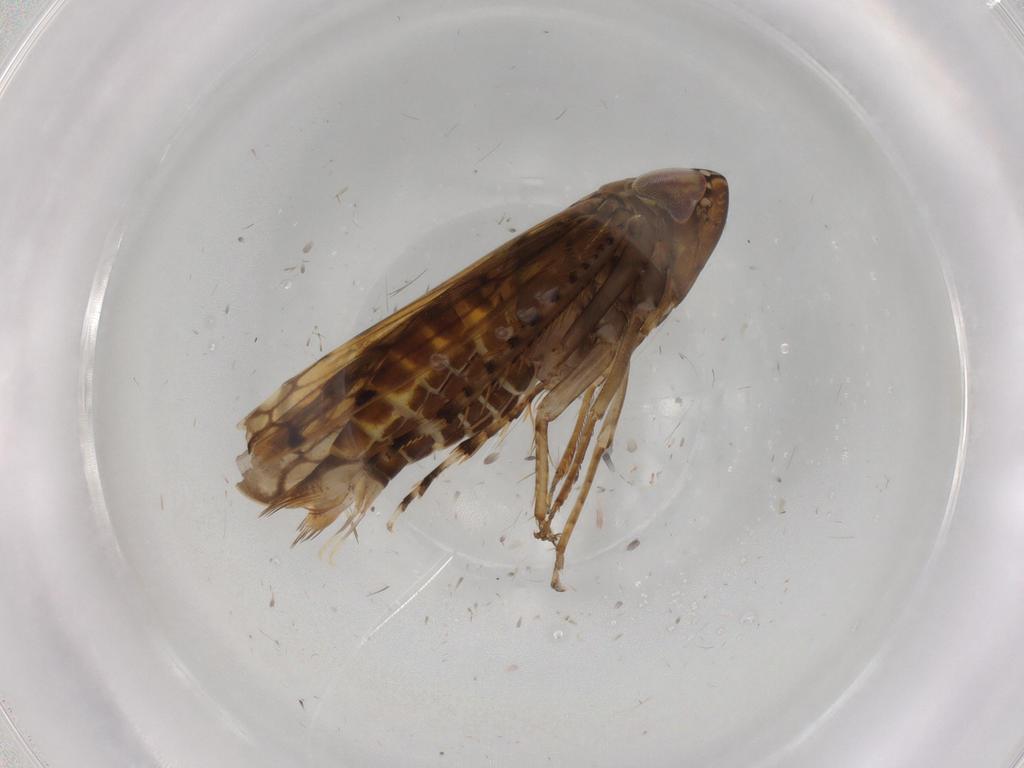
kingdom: Animalia
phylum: Arthropoda
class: Insecta
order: Hemiptera
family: Cicadellidae
